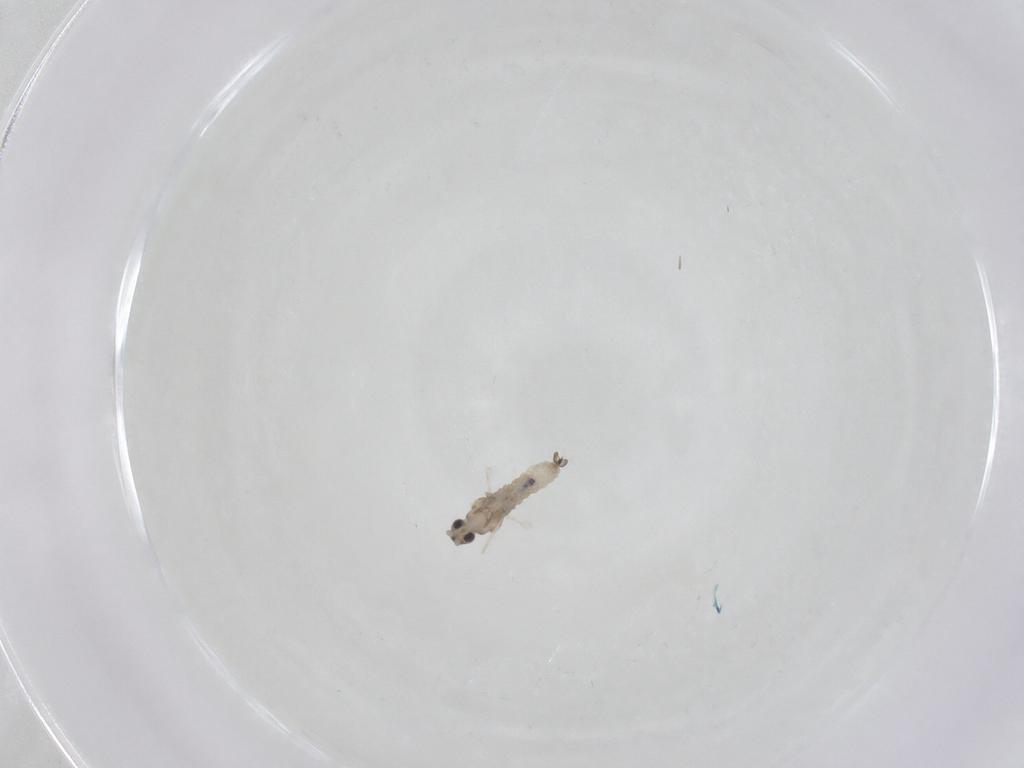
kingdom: Animalia
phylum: Arthropoda
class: Insecta
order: Diptera
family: Cecidomyiidae
